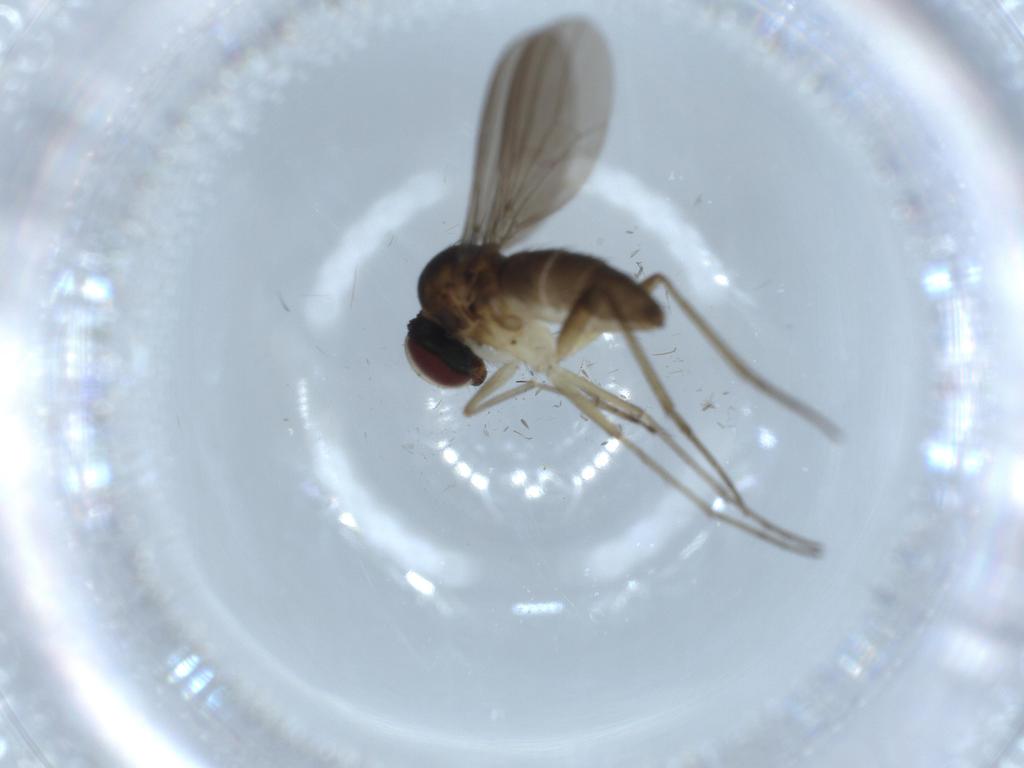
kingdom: Animalia
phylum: Arthropoda
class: Insecta
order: Diptera
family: Dolichopodidae
